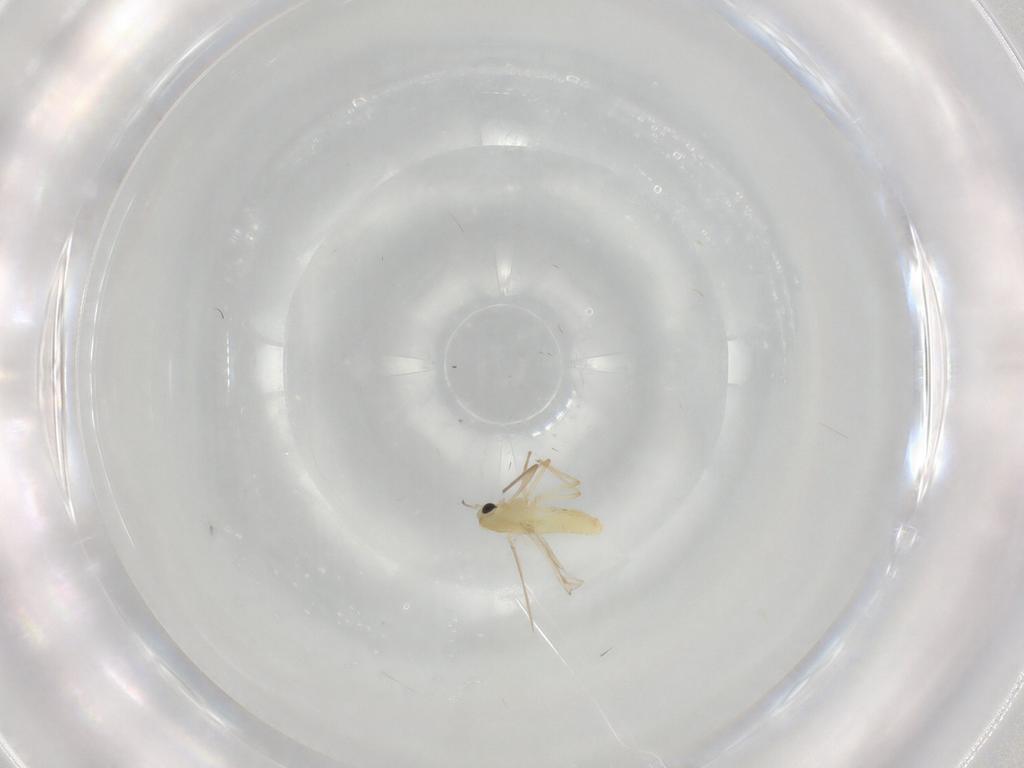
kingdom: Animalia
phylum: Arthropoda
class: Insecta
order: Diptera
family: Chironomidae
